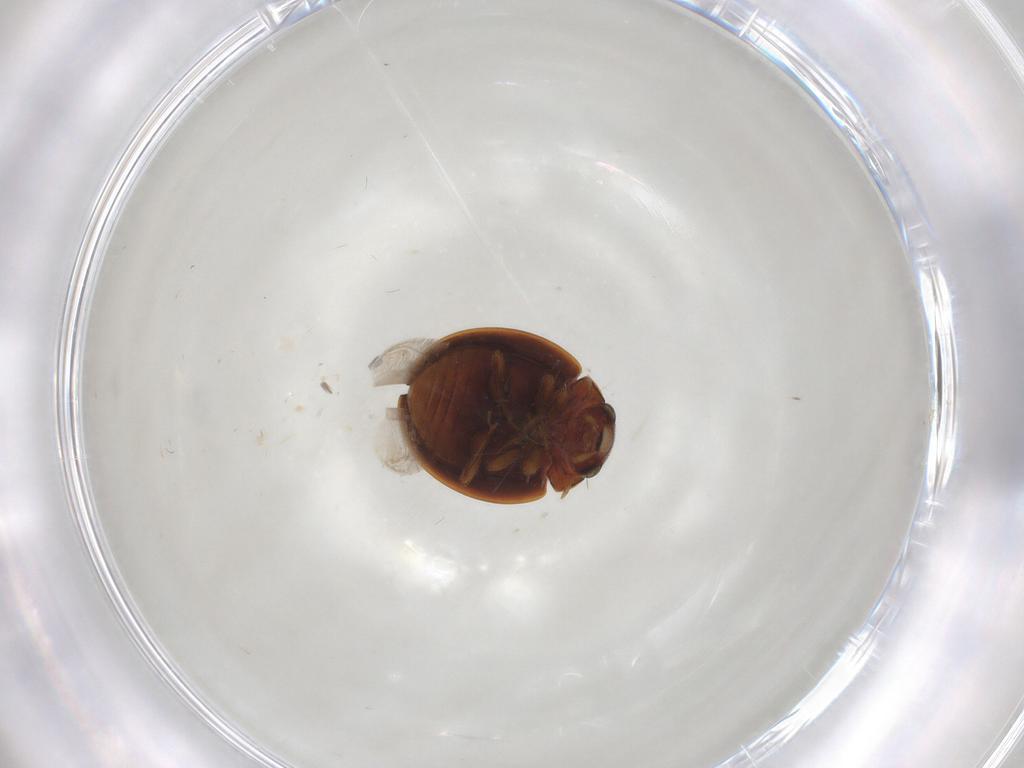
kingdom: Animalia
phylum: Arthropoda
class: Insecta
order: Coleoptera
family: Coccinellidae
